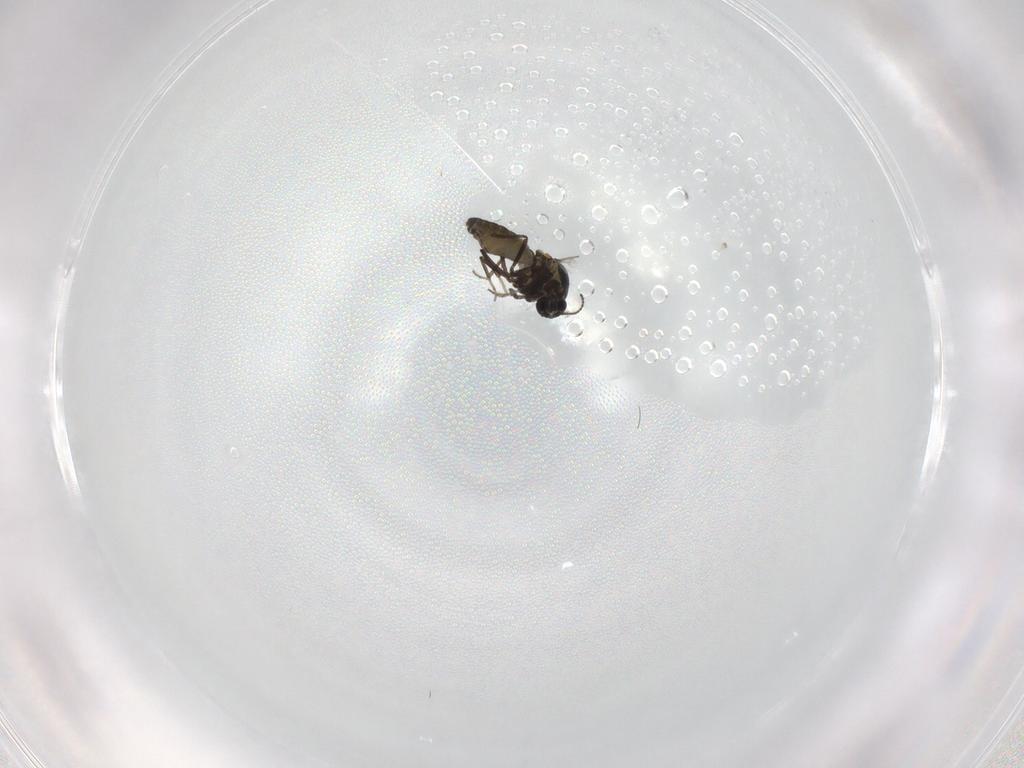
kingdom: Animalia
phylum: Arthropoda
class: Insecta
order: Diptera
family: Ceratopogonidae
